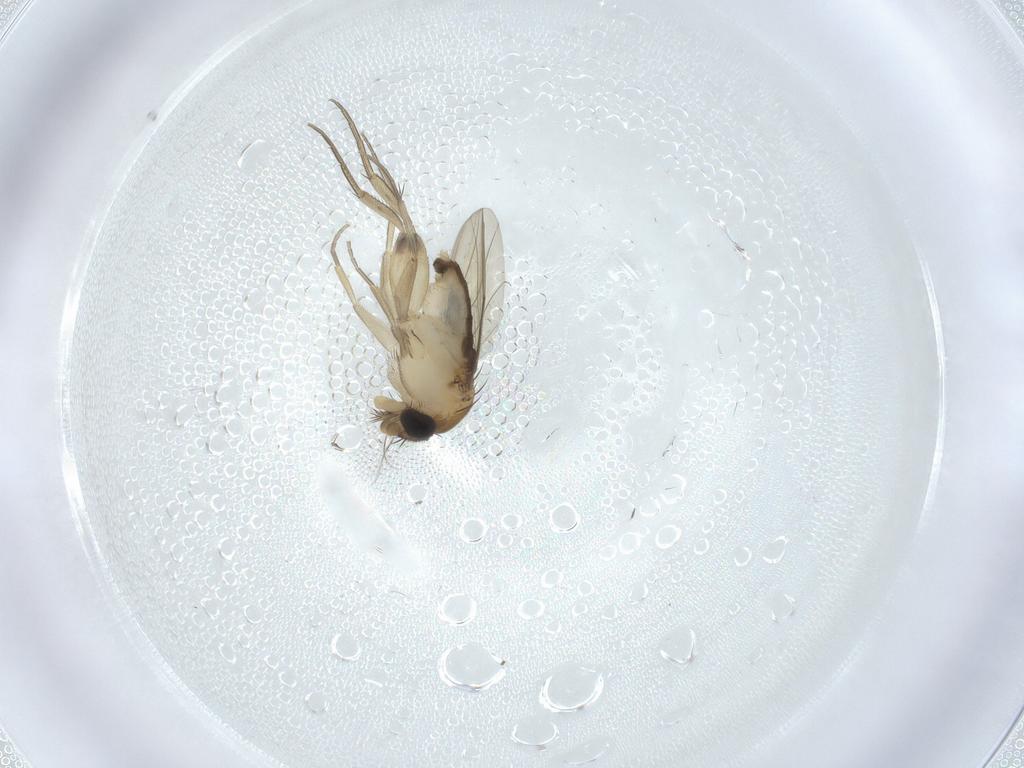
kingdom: Animalia
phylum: Arthropoda
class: Insecta
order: Diptera
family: Phoridae
